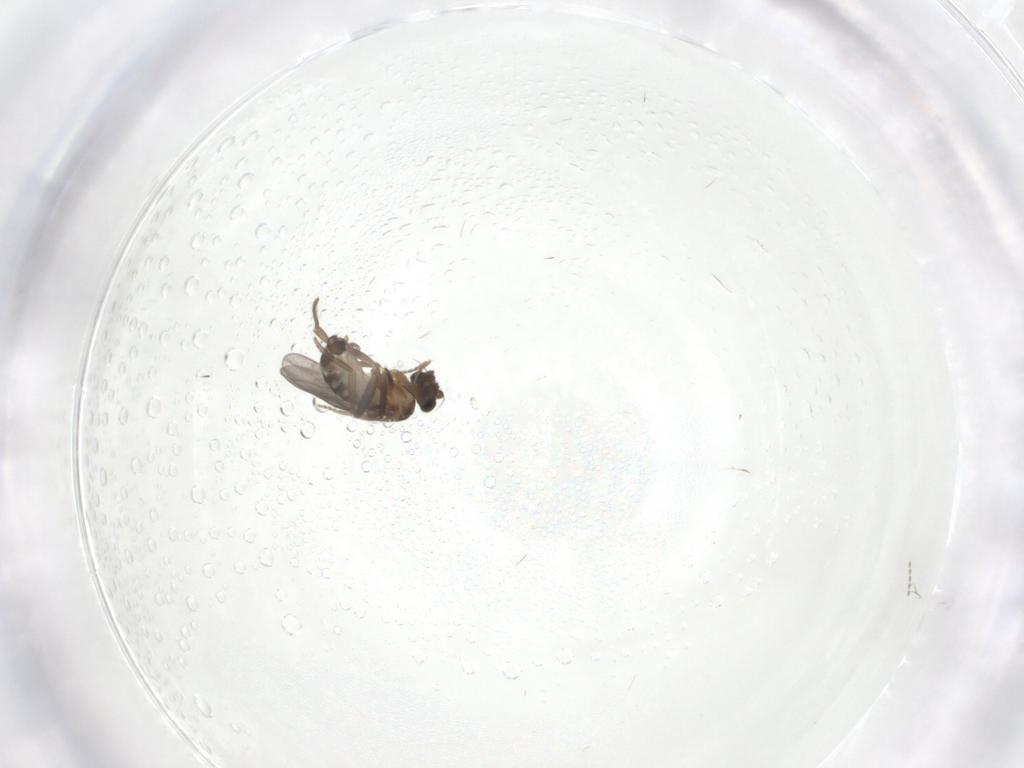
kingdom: Animalia
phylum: Arthropoda
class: Insecta
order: Diptera
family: Cecidomyiidae
